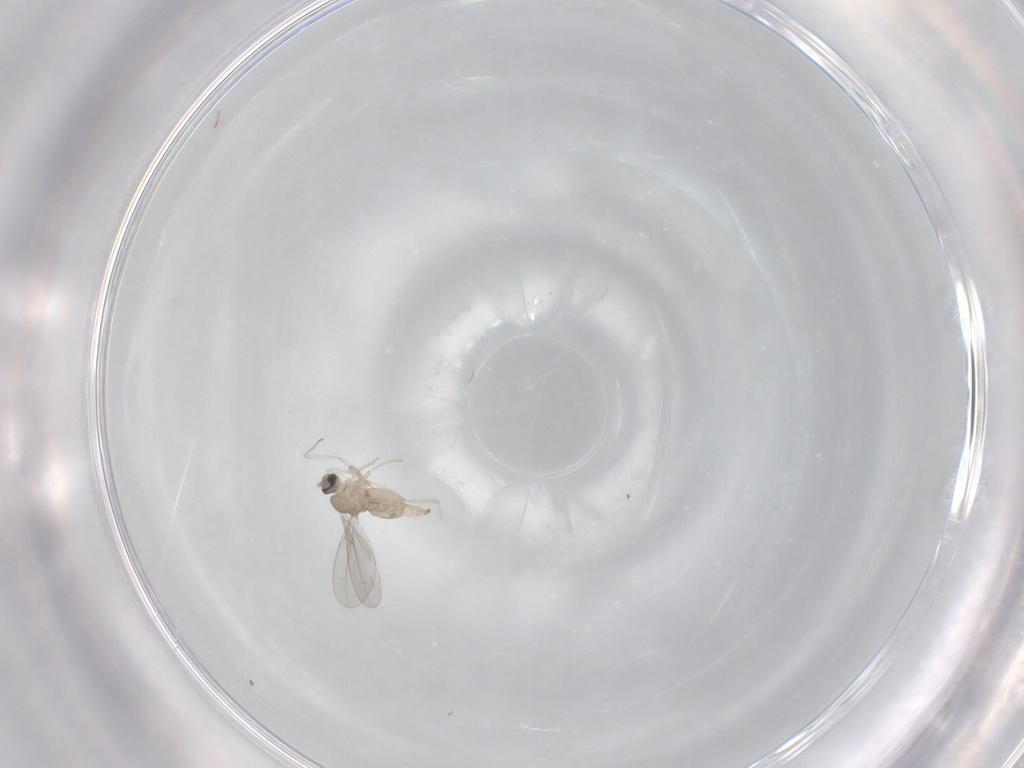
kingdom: Animalia
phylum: Arthropoda
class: Insecta
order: Diptera
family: Cecidomyiidae
